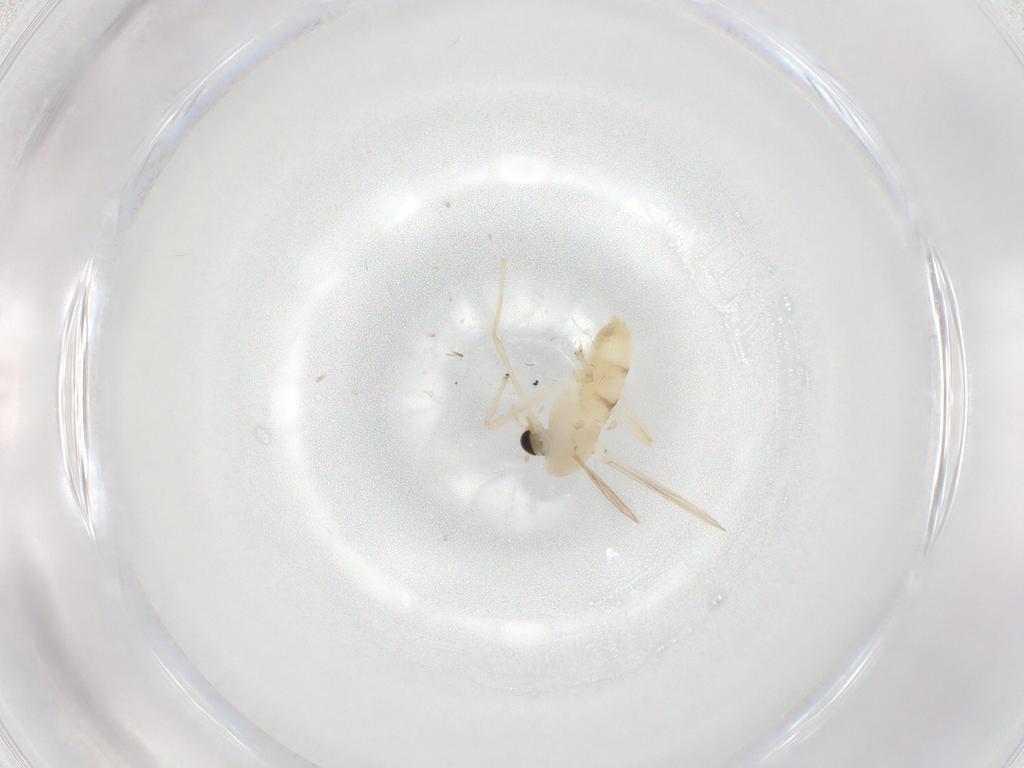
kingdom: Animalia
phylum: Arthropoda
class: Insecta
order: Diptera
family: Chironomidae
